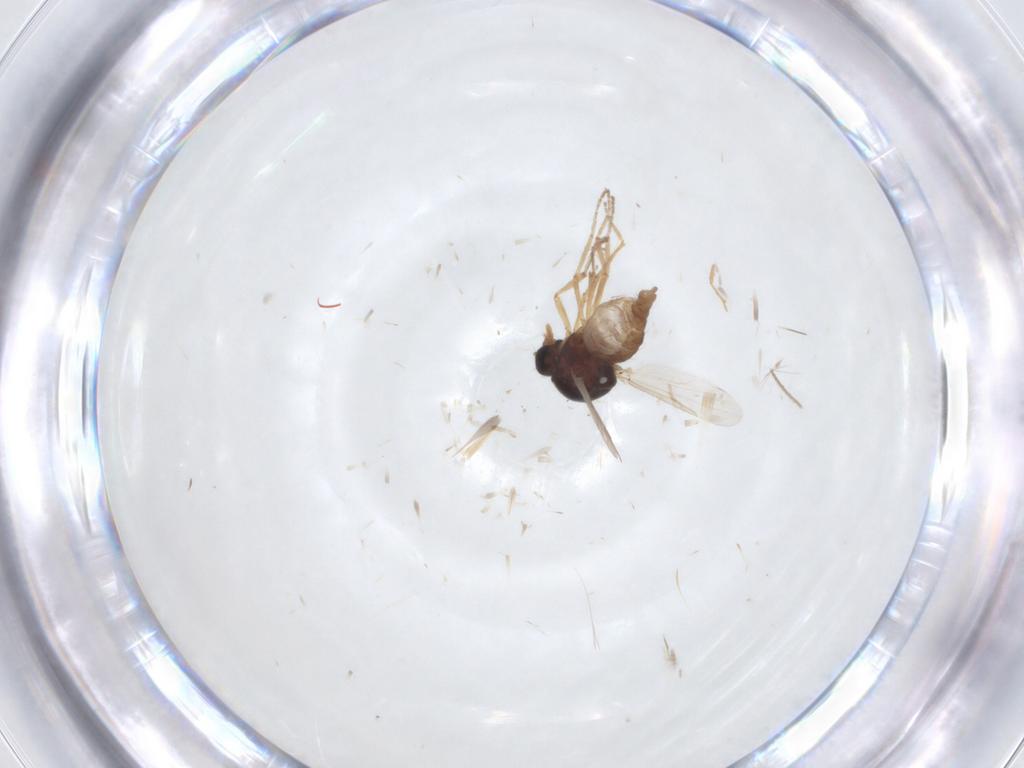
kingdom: Animalia
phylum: Arthropoda
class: Insecta
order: Diptera
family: Ceratopogonidae
